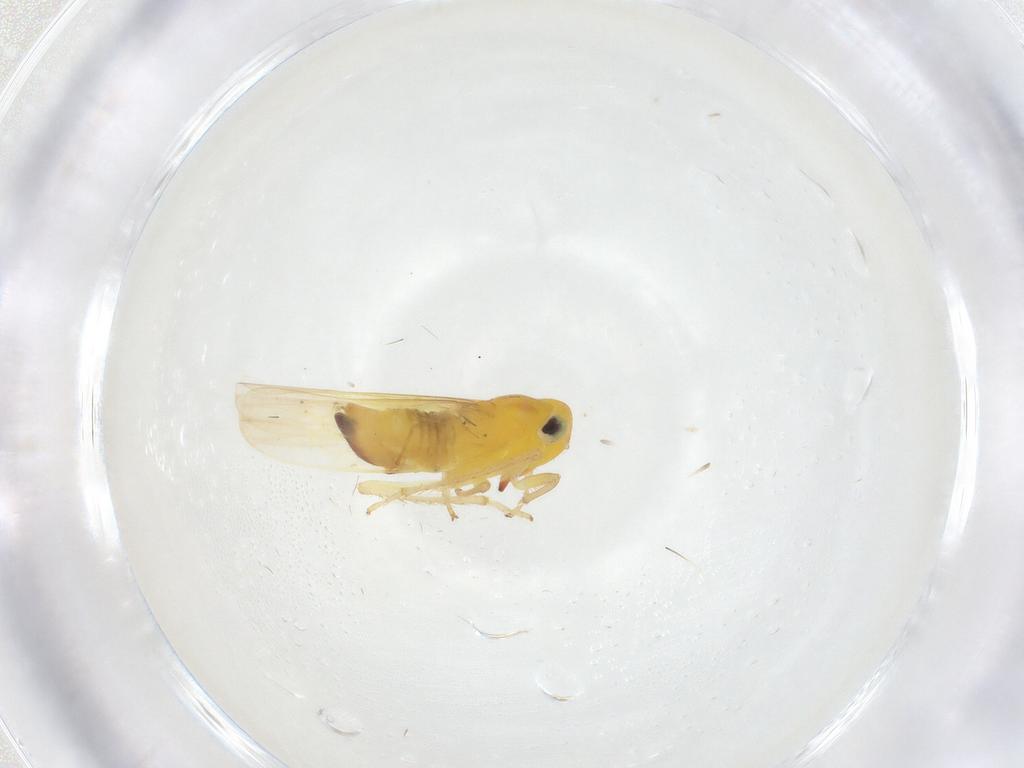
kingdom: Animalia
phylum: Arthropoda
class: Insecta
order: Hemiptera
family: Cicadellidae
